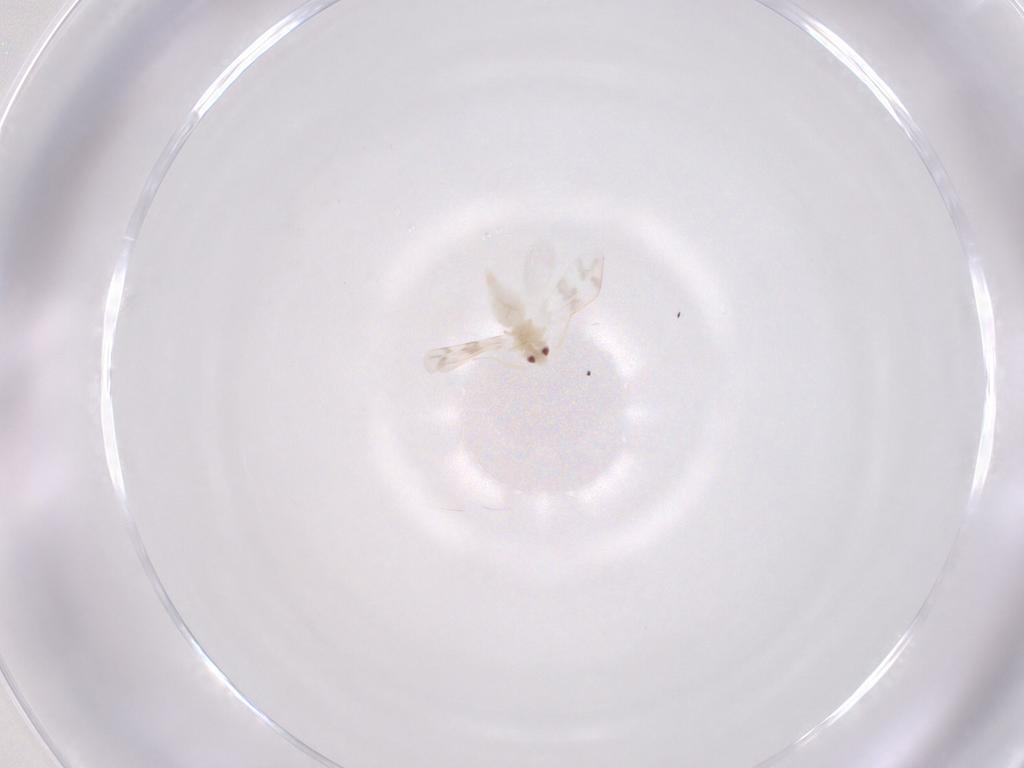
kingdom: Animalia
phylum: Arthropoda
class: Insecta
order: Hemiptera
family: Aleyrodidae
